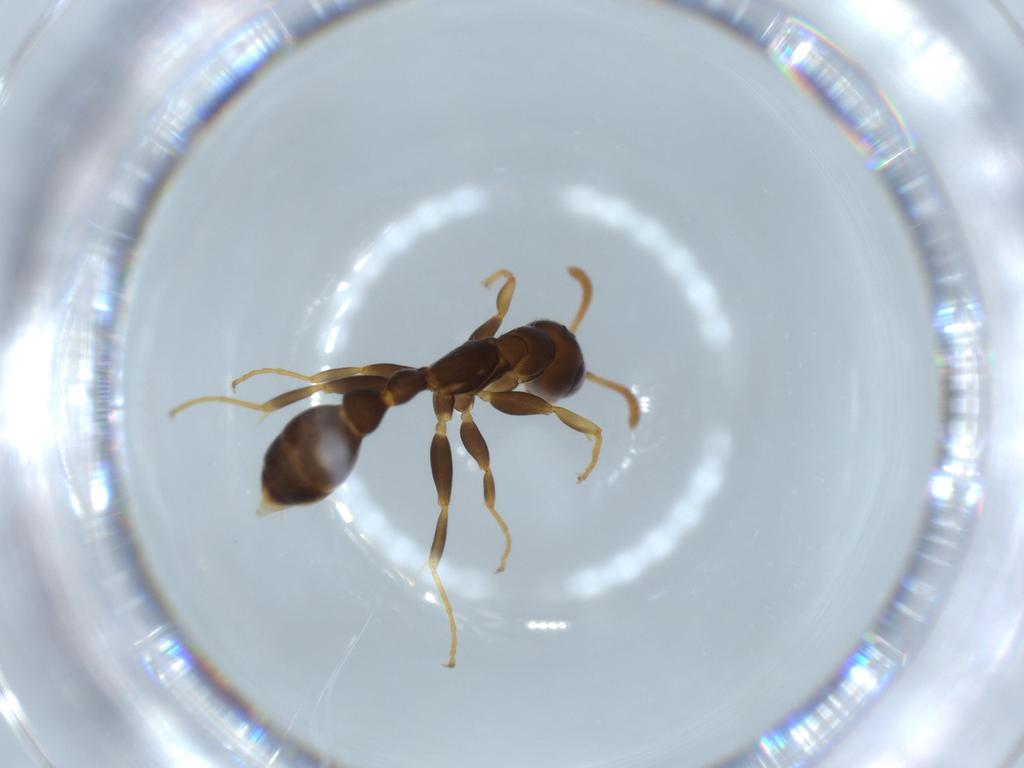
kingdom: Animalia
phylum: Arthropoda
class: Insecta
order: Hymenoptera
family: Formicidae
